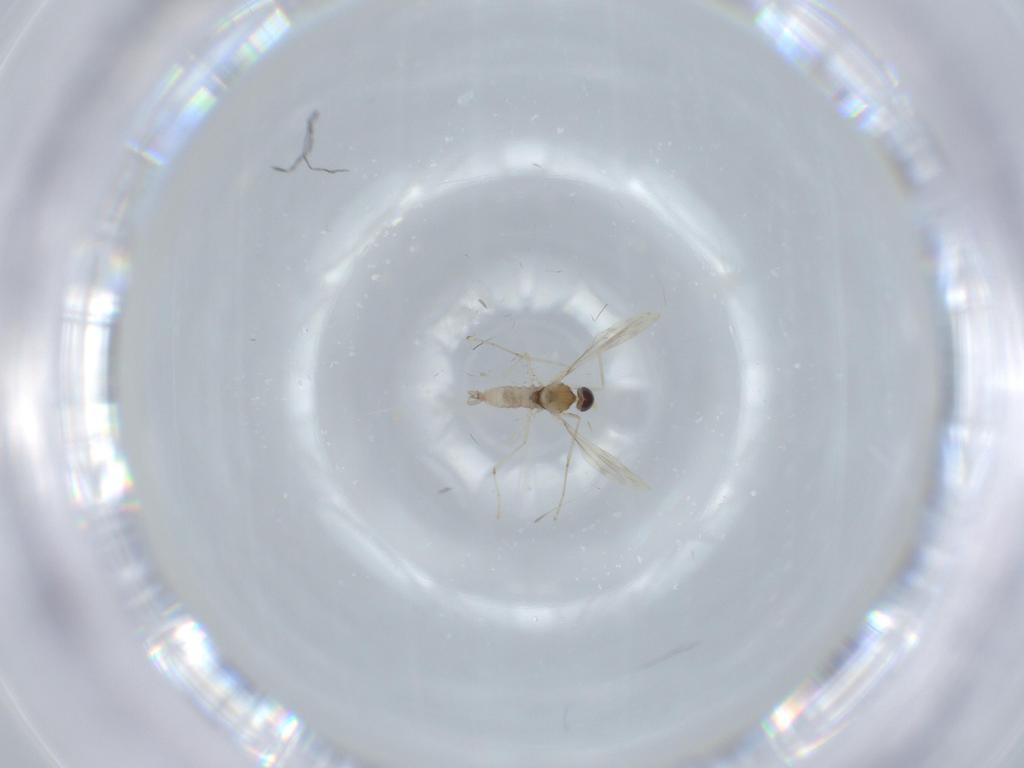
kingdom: Animalia
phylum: Arthropoda
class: Insecta
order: Diptera
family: Cecidomyiidae
